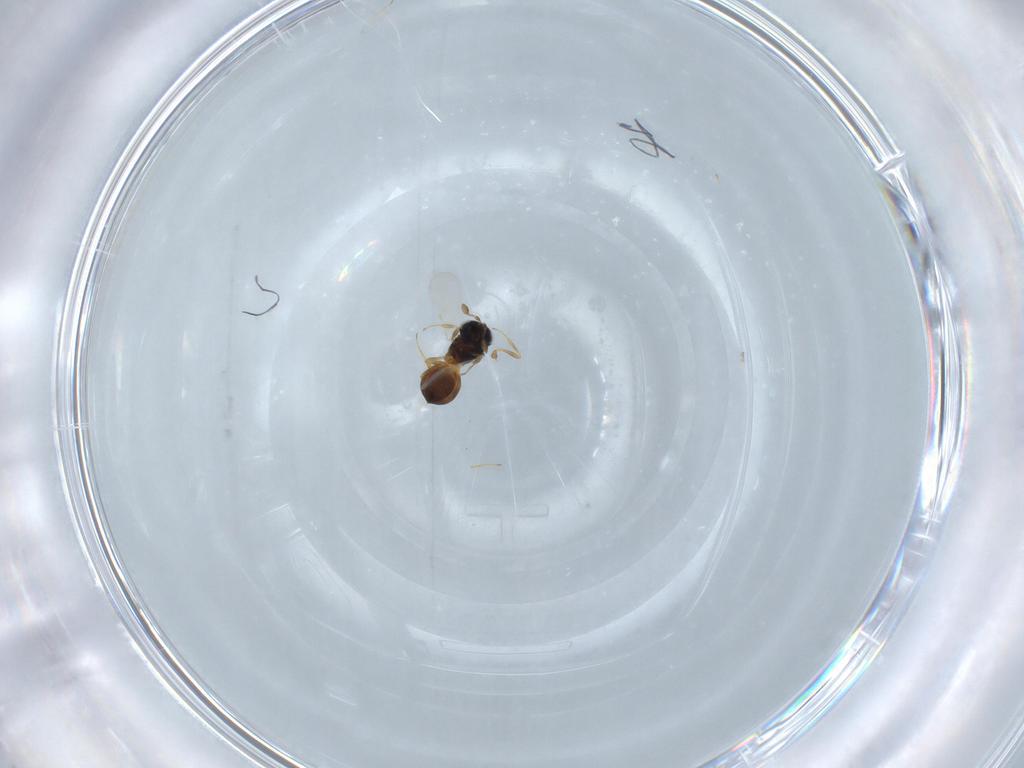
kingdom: Animalia
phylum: Arthropoda
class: Insecta
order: Hymenoptera
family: Scelionidae
